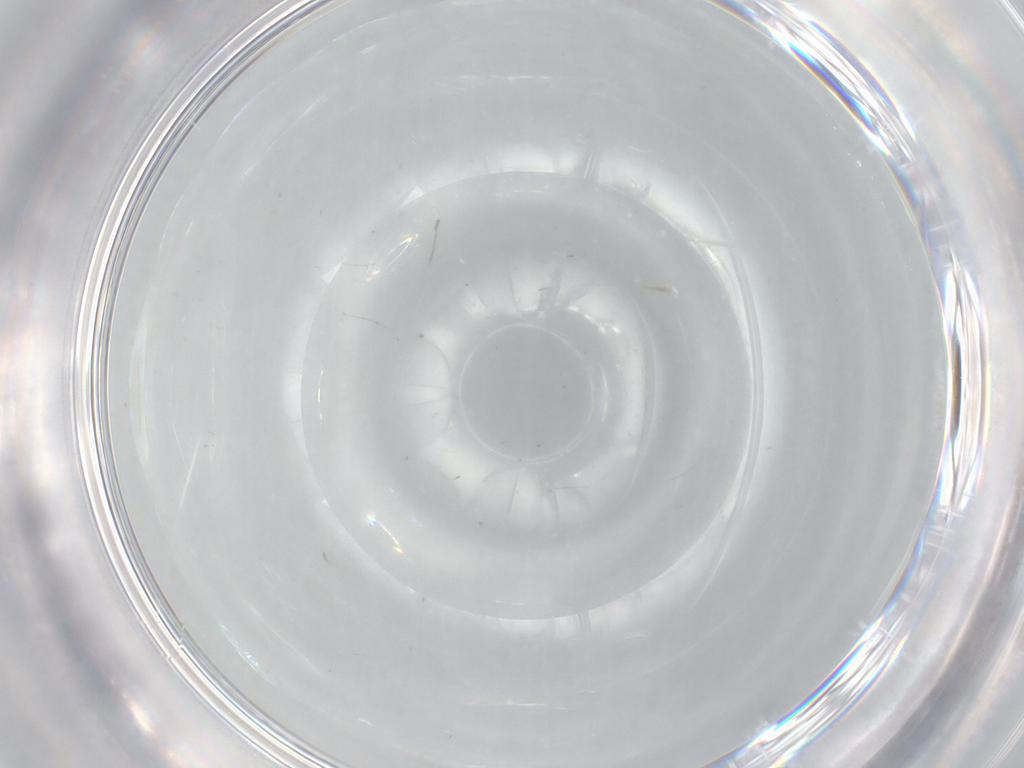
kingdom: Animalia
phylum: Arthropoda
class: Insecta
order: Diptera
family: Cecidomyiidae
